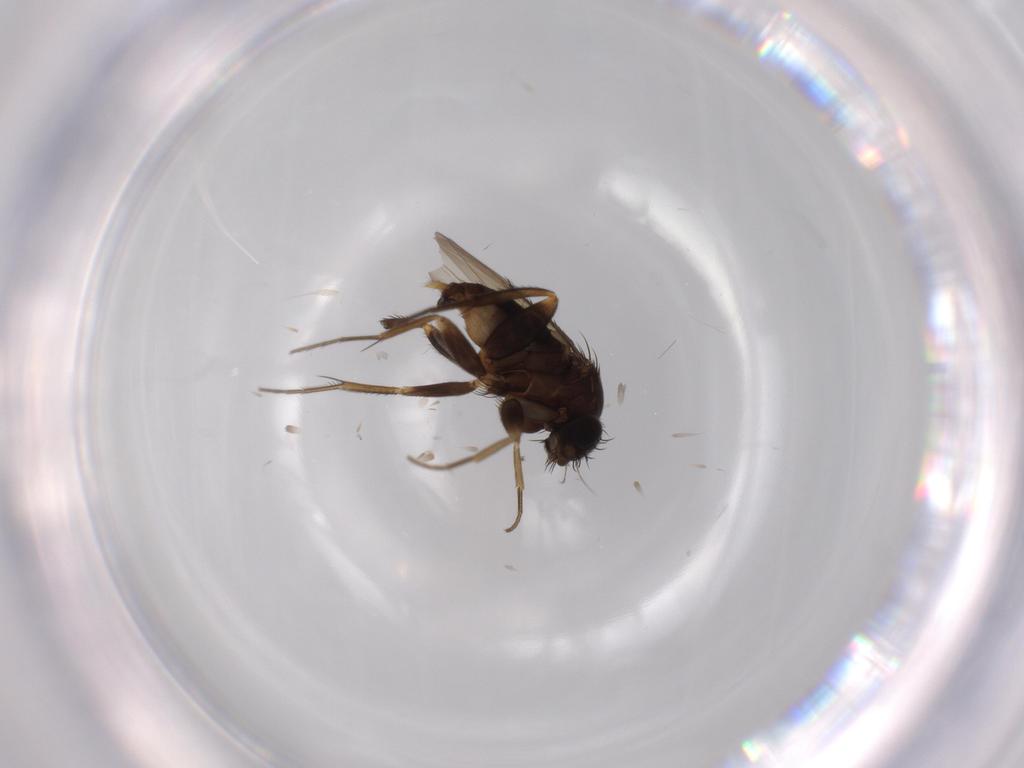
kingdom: Animalia
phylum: Arthropoda
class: Insecta
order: Diptera
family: Phoridae
